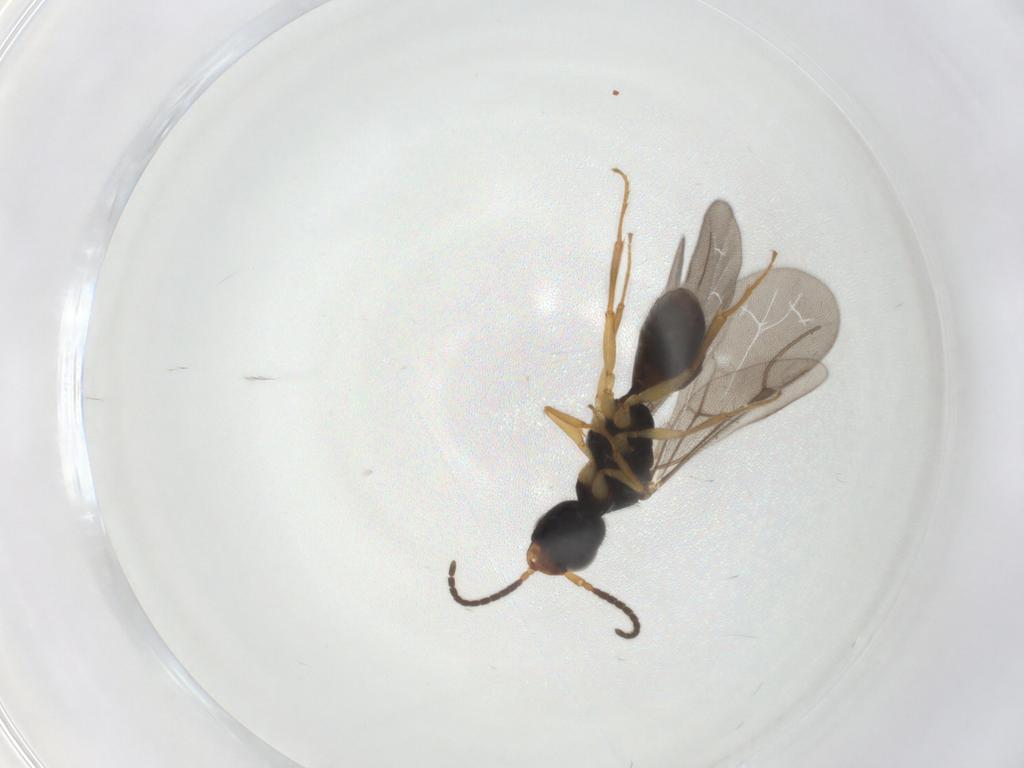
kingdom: Animalia
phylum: Arthropoda
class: Insecta
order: Hymenoptera
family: Bethylidae
